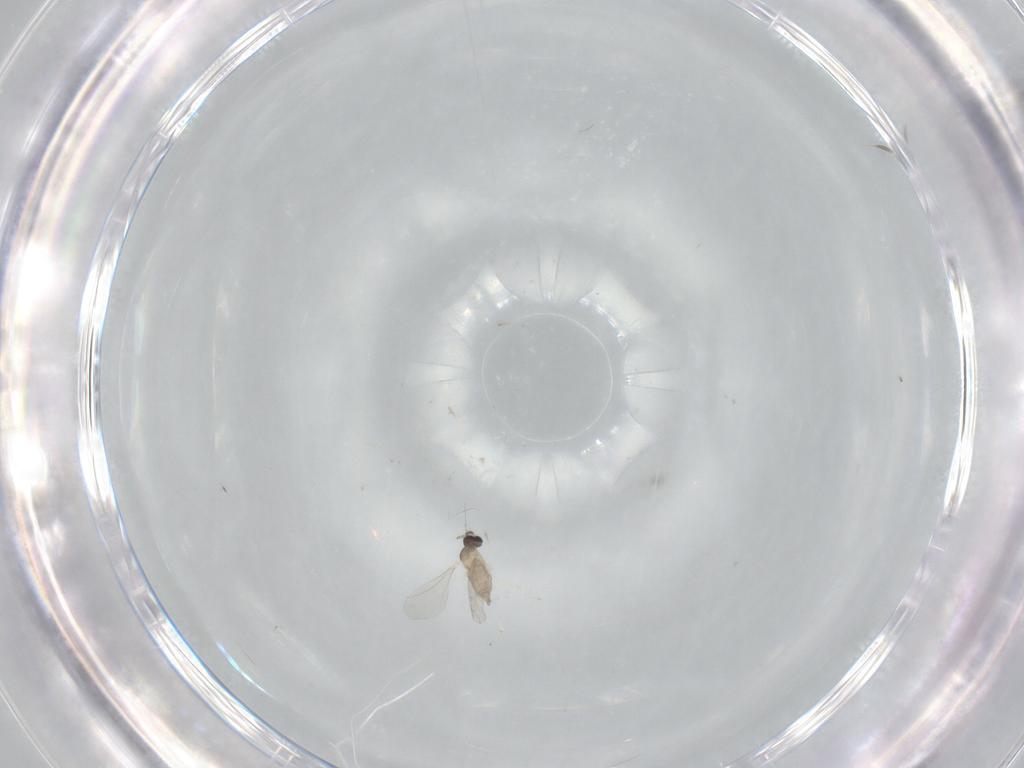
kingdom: Animalia
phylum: Arthropoda
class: Insecta
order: Diptera
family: Cecidomyiidae
